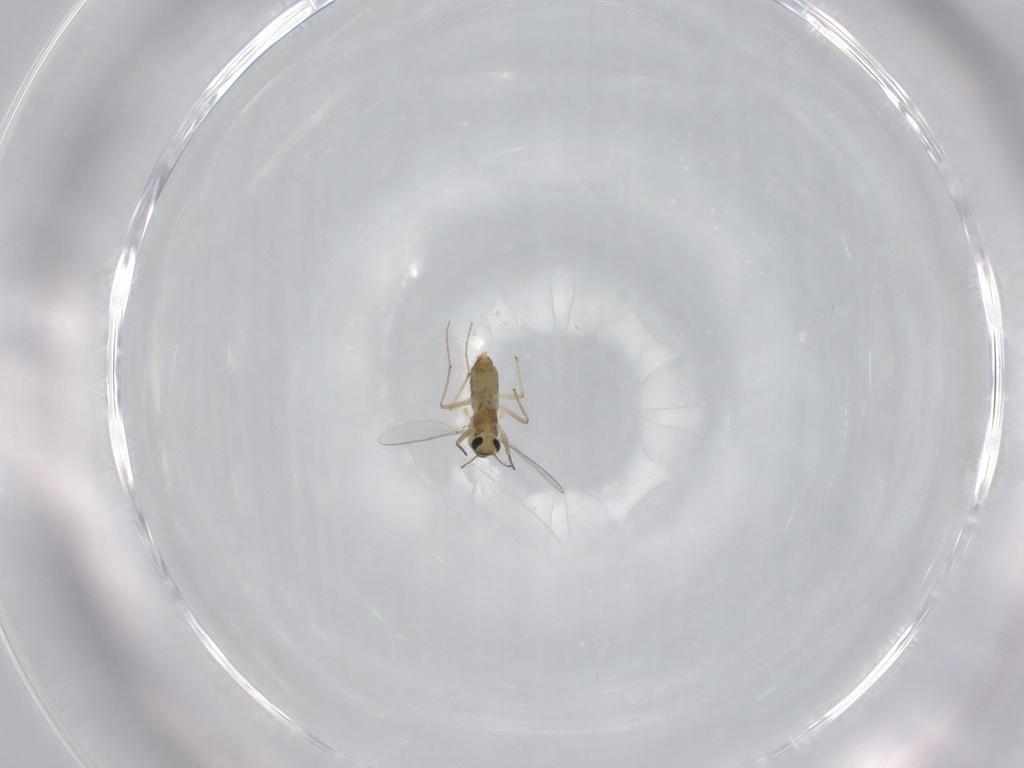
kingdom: Animalia
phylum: Arthropoda
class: Insecta
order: Diptera
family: Chironomidae
